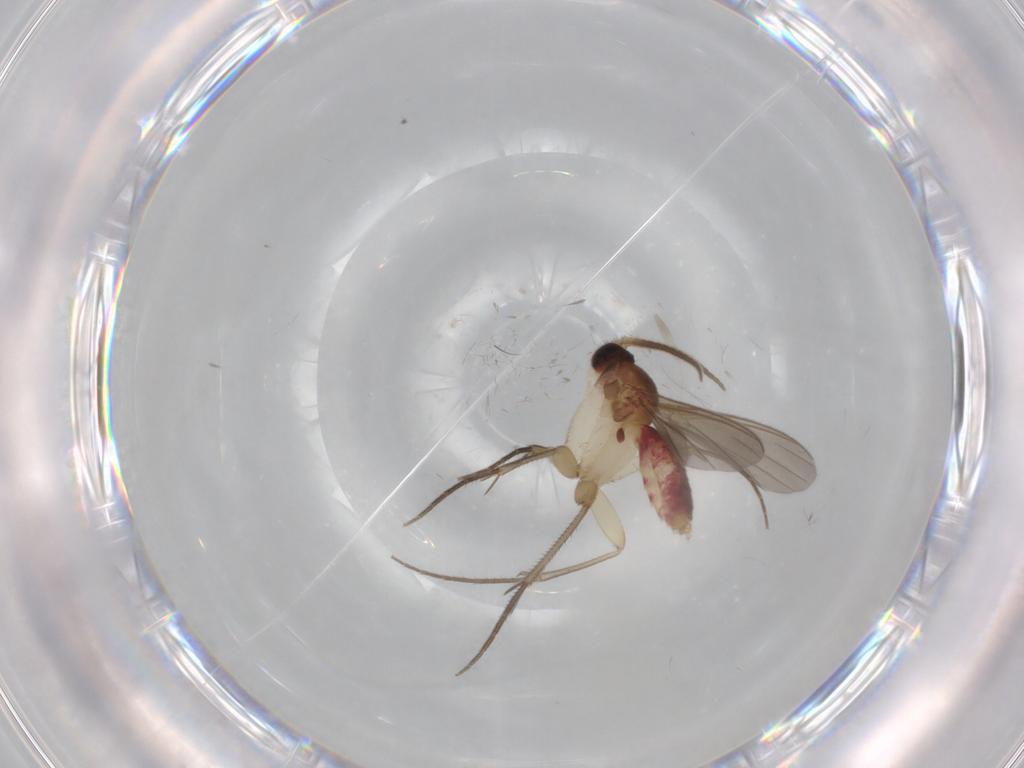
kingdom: Animalia
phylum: Arthropoda
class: Insecta
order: Diptera
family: Mycetophilidae
